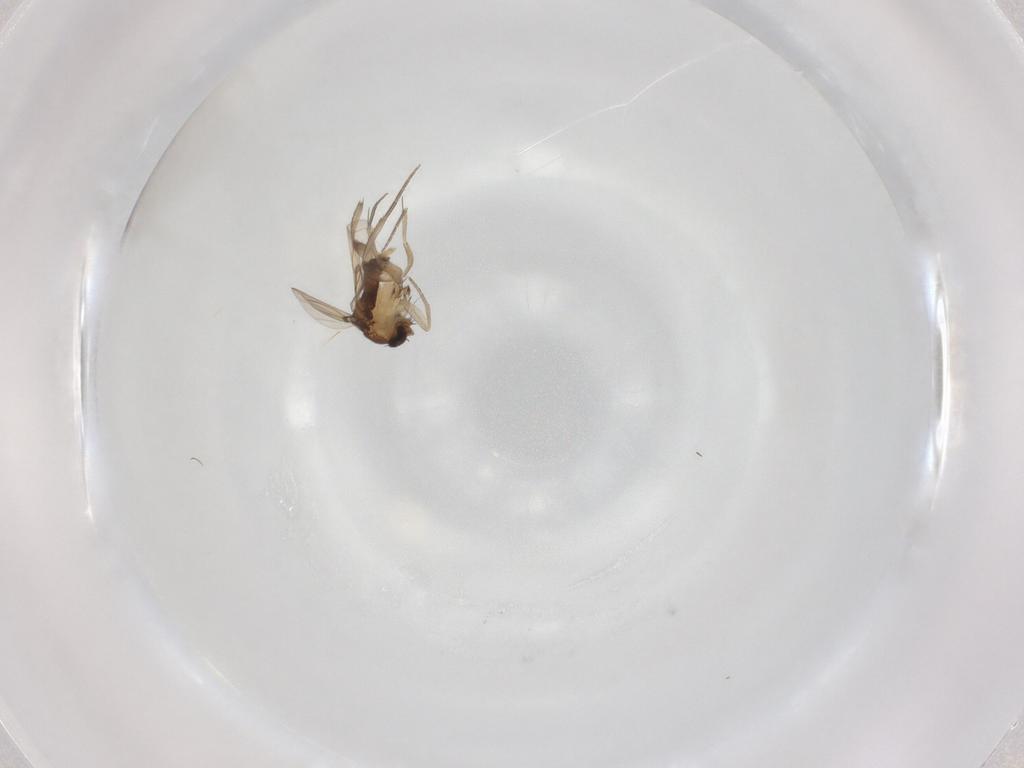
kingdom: Animalia
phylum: Arthropoda
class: Insecta
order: Diptera
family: Phoridae
